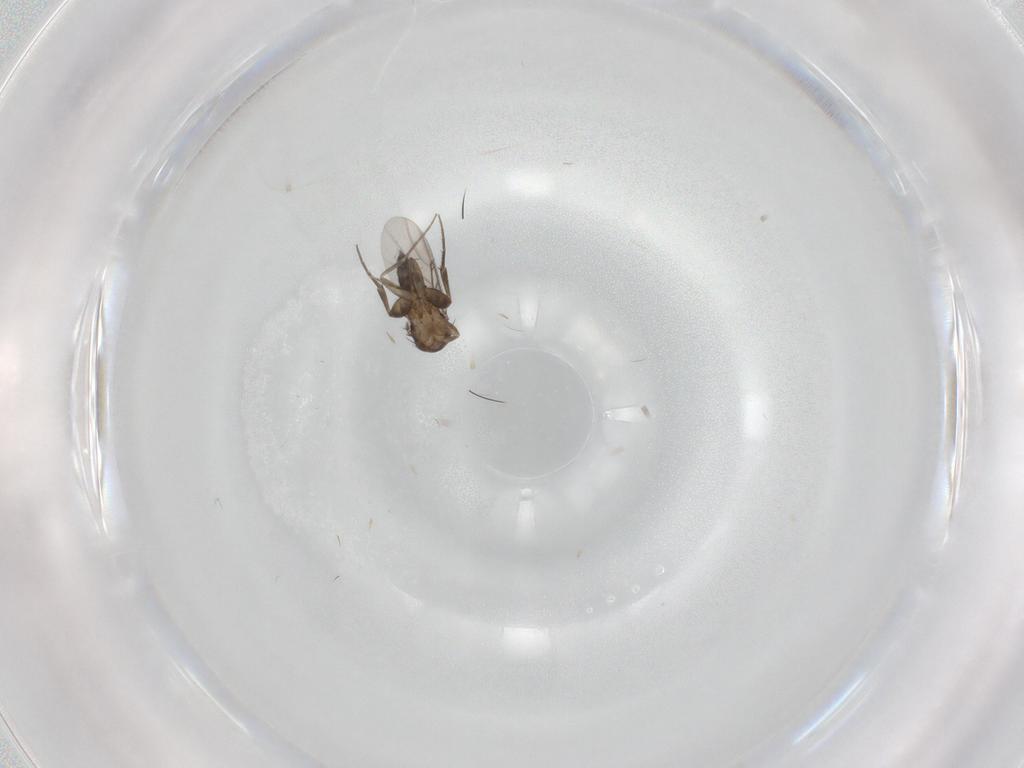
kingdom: Animalia
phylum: Arthropoda
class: Insecta
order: Diptera
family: Phoridae
